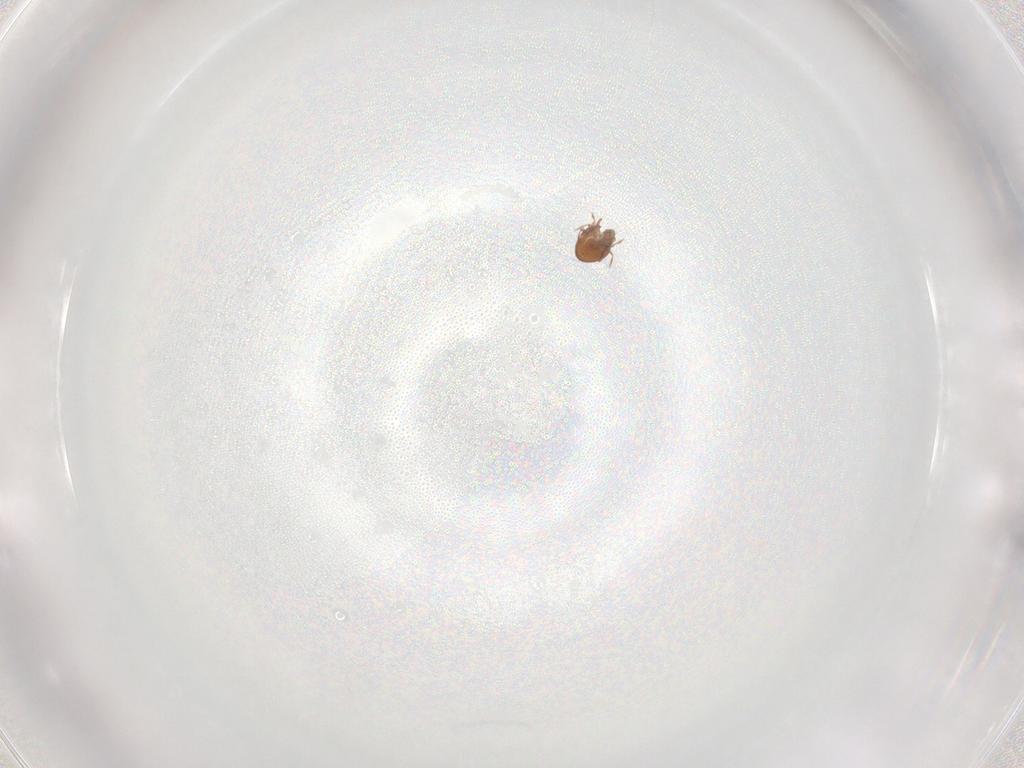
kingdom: Animalia
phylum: Arthropoda
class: Arachnida
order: Sarcoptiformes
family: Oribatulidae
